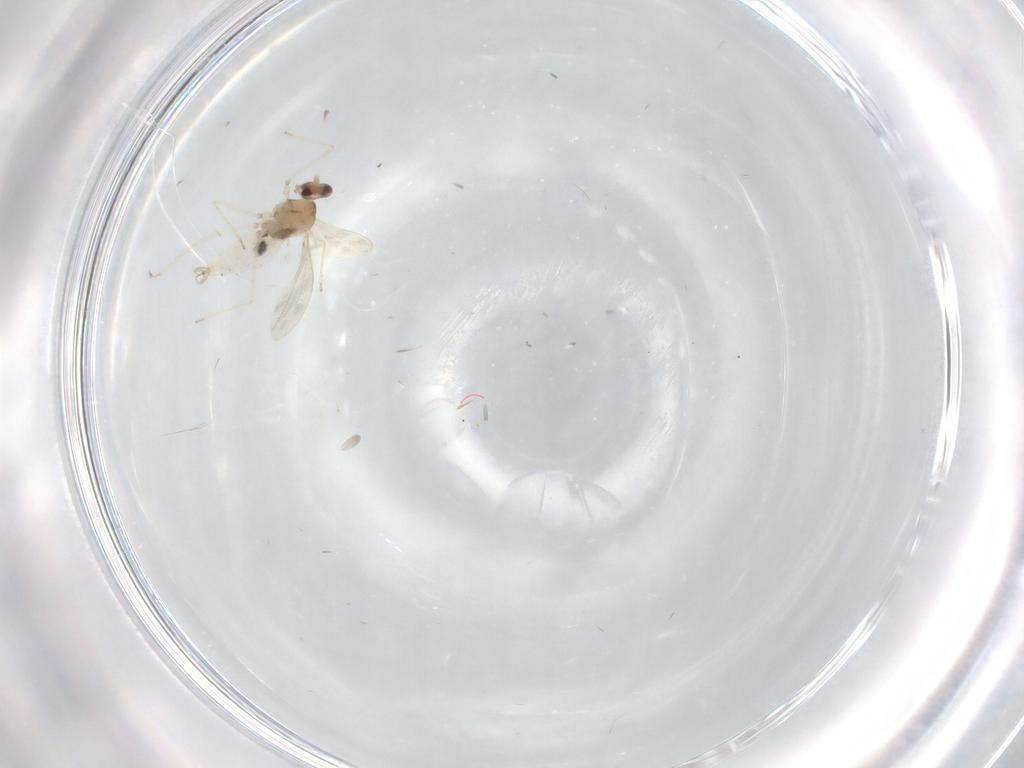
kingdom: Animalia
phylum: Arthropoda
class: Insecta
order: Diptera
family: Cecidomyiidae
